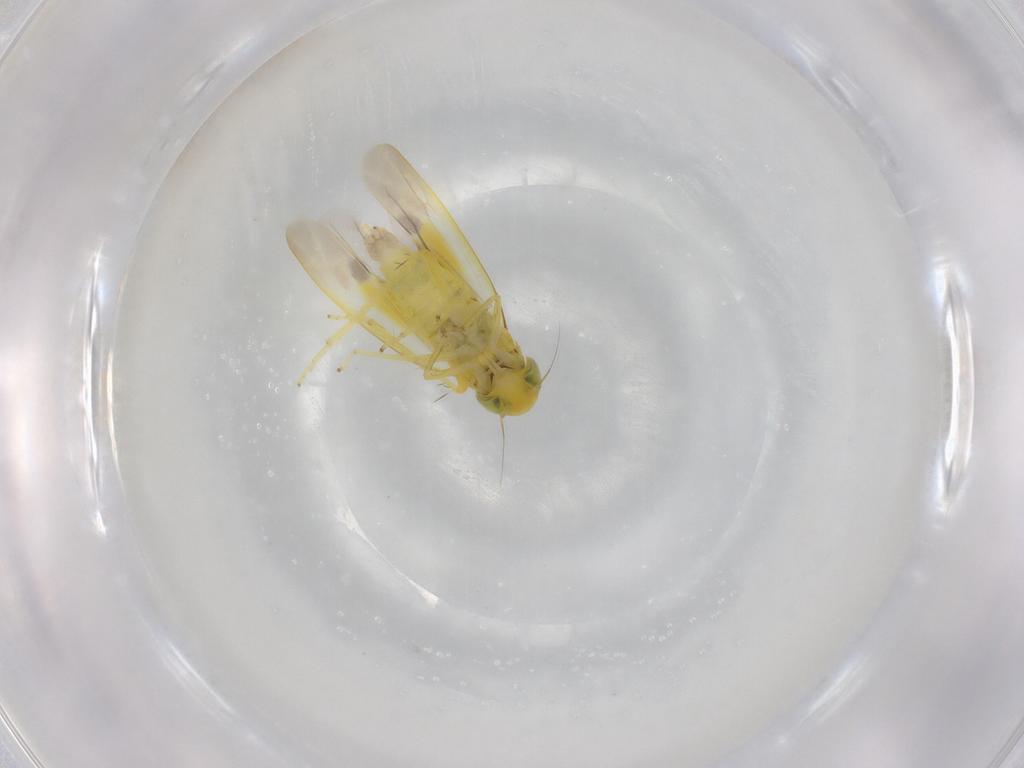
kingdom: Animalia
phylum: Arthropoda
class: Insecta
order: Hemiptera
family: Cicadellidae
